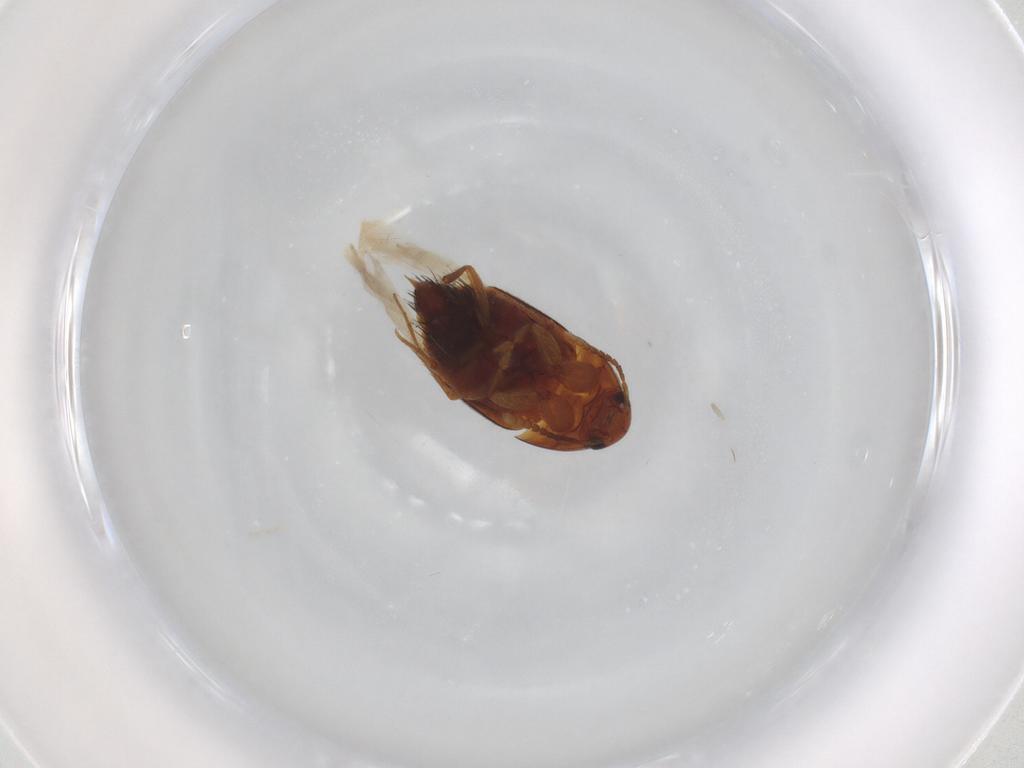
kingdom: Animalia
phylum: Arthropoda
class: Insecta
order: Coleoptera
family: Staphylinidae
